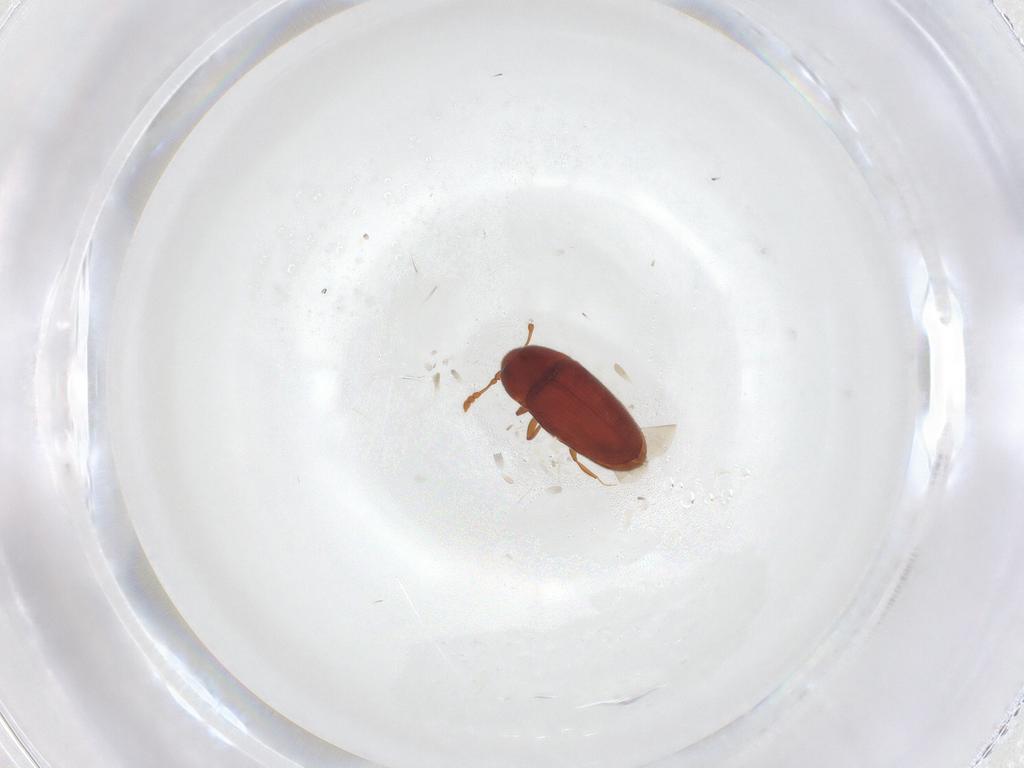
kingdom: Animalia
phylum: Arthropoda
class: Insecta
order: Coleoptera
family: Throscidae
